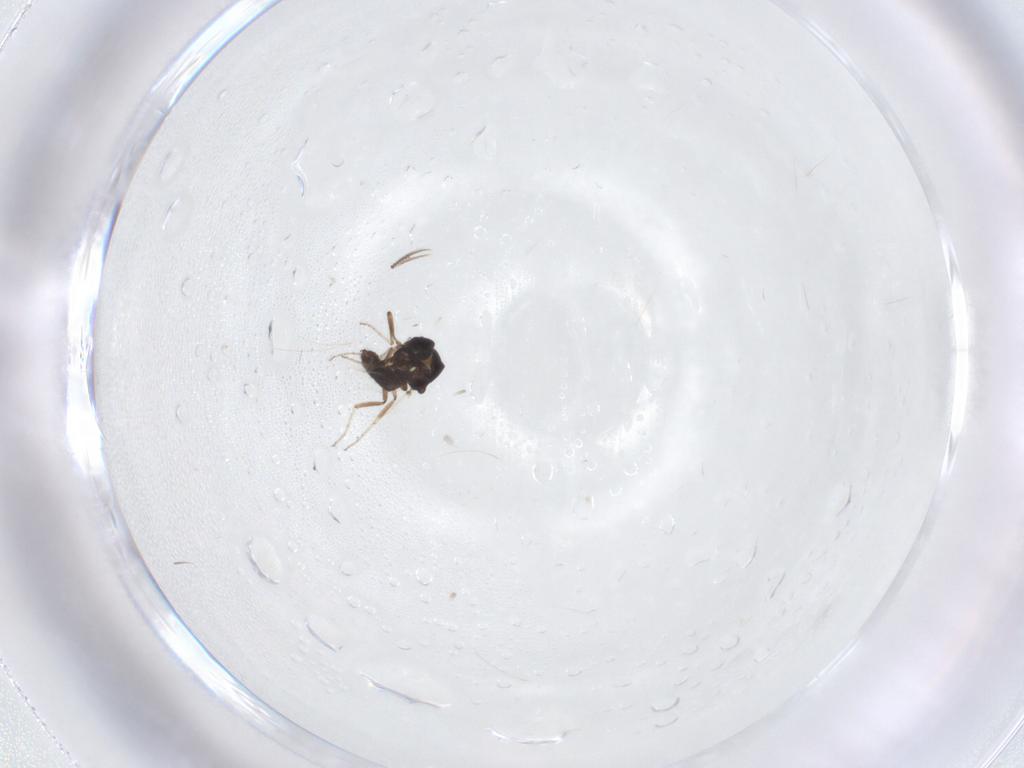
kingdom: Animalia
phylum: Arthropoda
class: Insecta
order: Diptera
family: Ceratopogonidae
